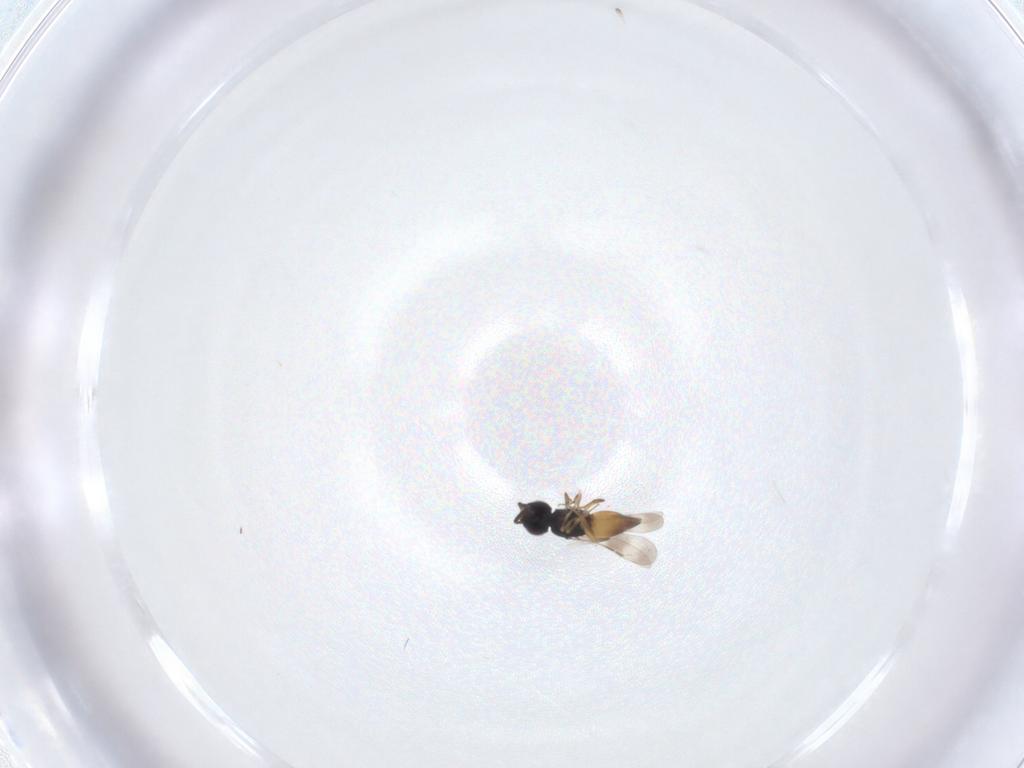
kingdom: Animalia
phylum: Arthropoda
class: Insecta
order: Hymenoptera
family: Ceraphronidae
